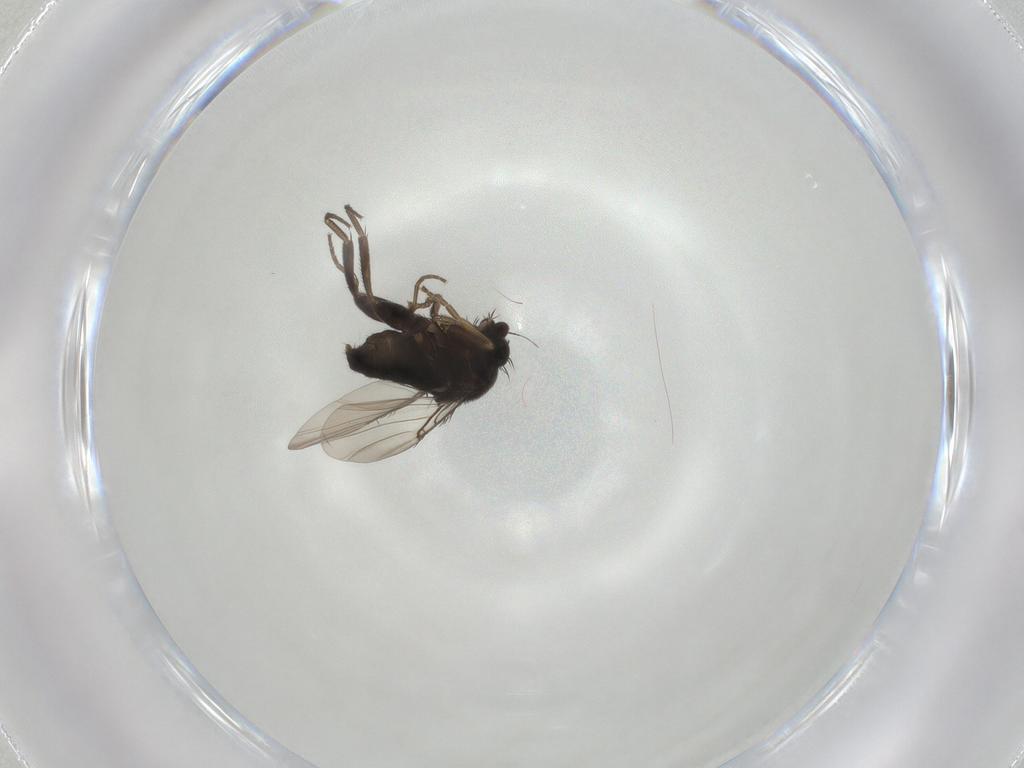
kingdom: Animalia
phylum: Arthropoda
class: Insecta
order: Diptera
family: Phoridae
